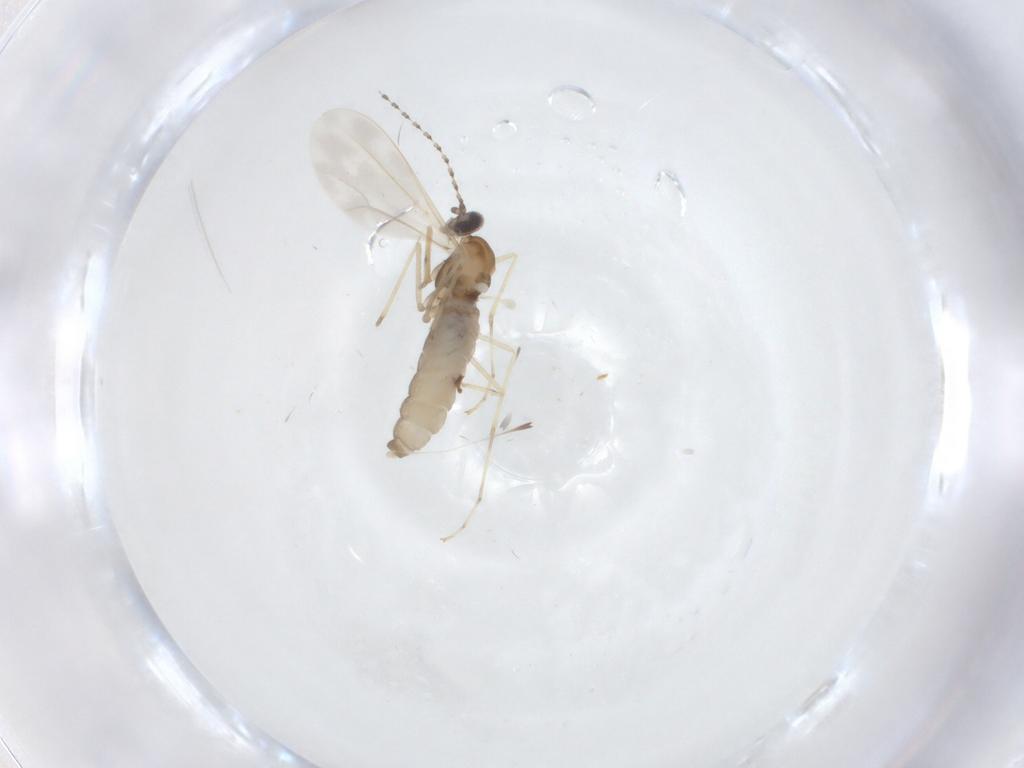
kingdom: Animalia
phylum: Arthropoda
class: Insecta
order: Diptera
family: Cecidomyiidae
